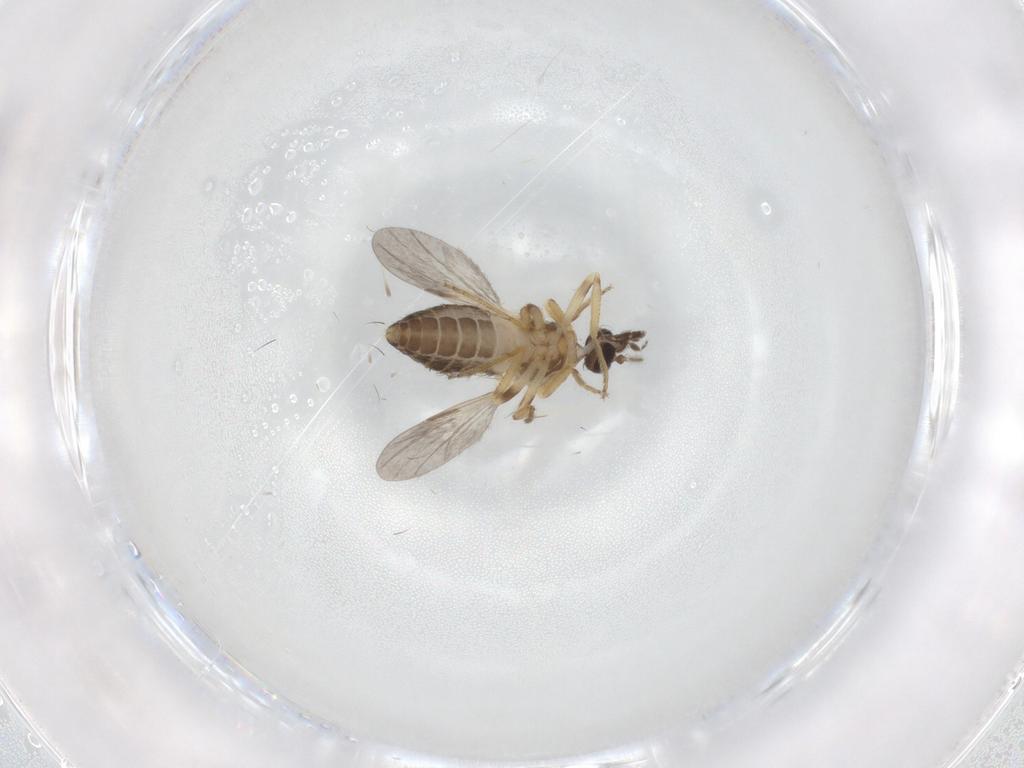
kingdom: Animalia
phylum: Arthropoda
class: Insecta
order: Diptera
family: Ceratopogonidae
